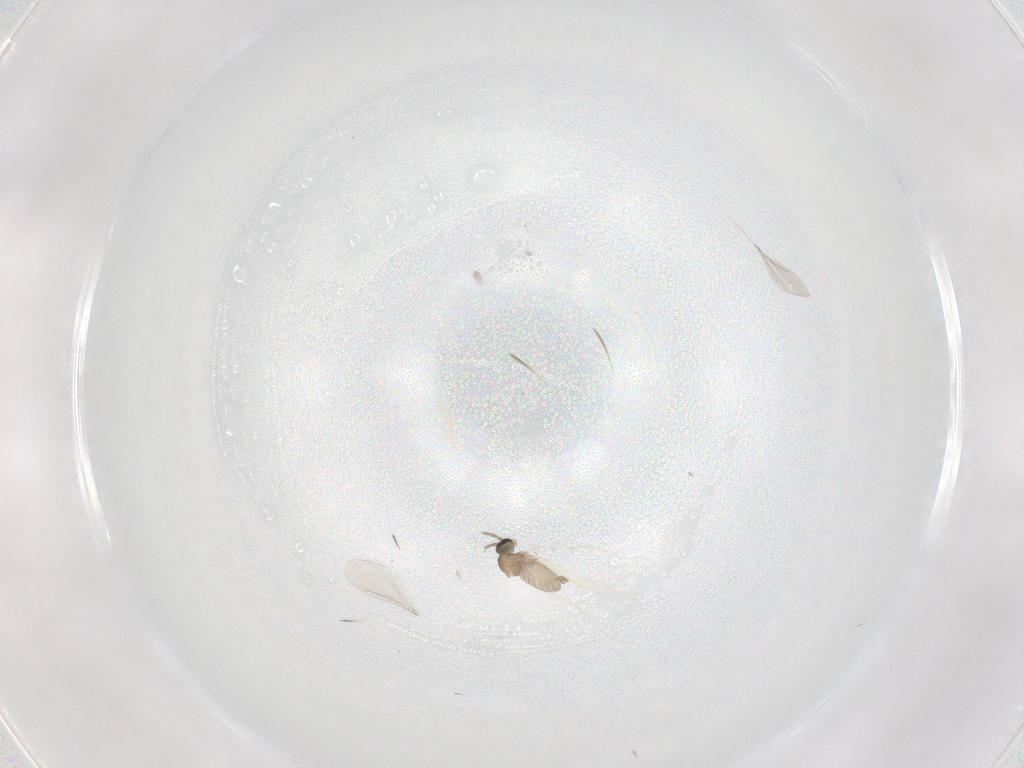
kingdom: Animalia
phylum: Arthropoda
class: Insecta
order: Diptera
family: Cecidomyiidae
